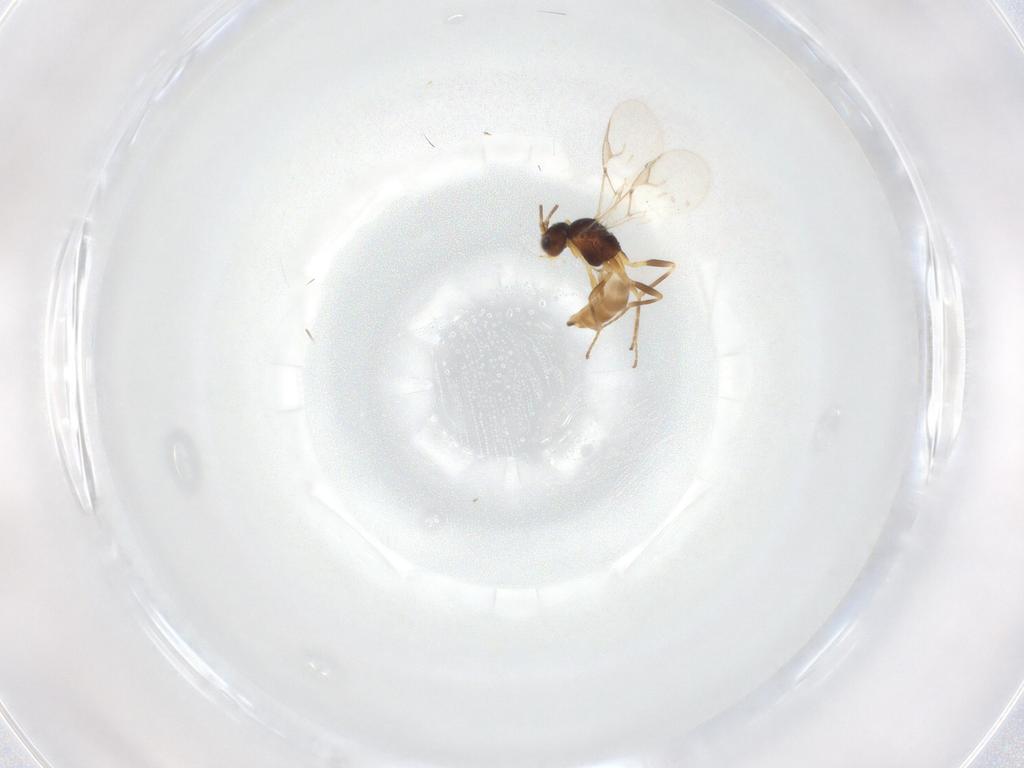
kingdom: Animalia
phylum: Arthropoda
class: Insecta
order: Hymenoptera
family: Braconidae
